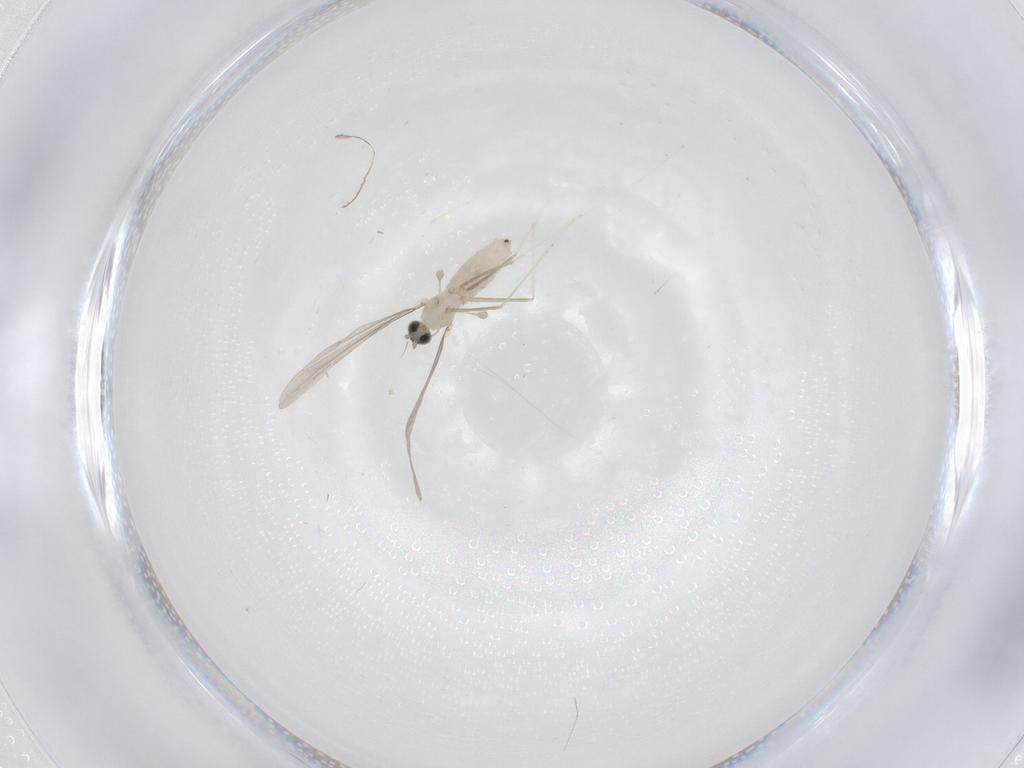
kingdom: Animalia
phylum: Arthropoda
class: Insecta
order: Diptera
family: Cecidomyiidae
